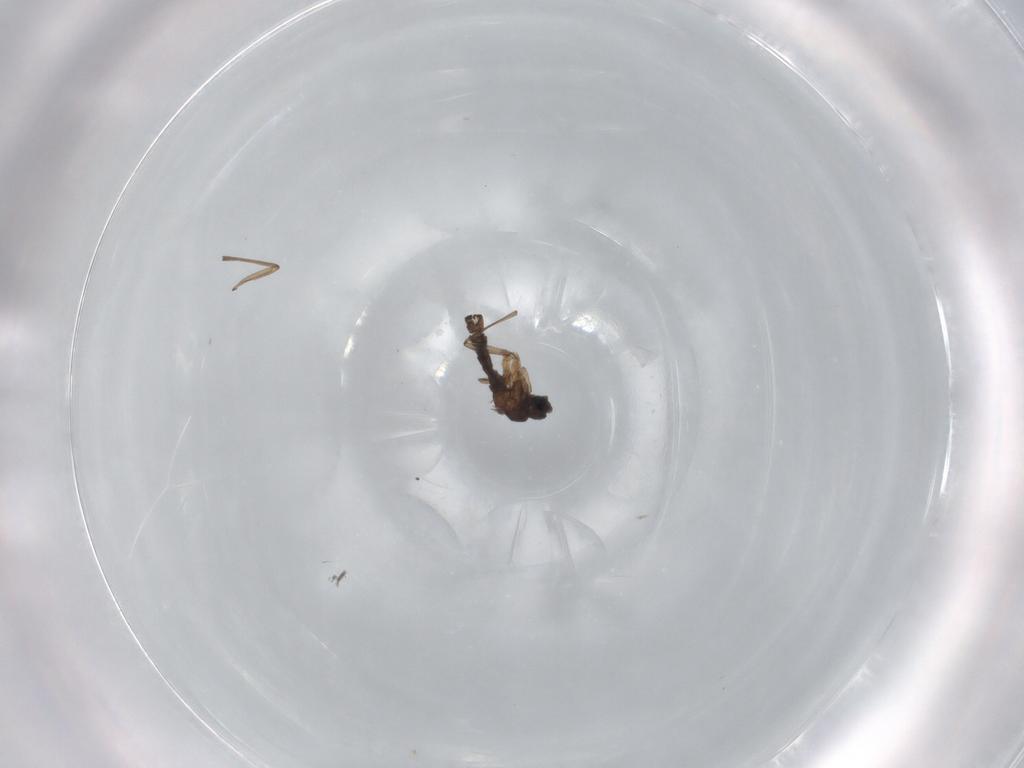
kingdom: Animalia
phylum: Arthropoda
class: Insecta
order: Diptera
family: Sciaridae
